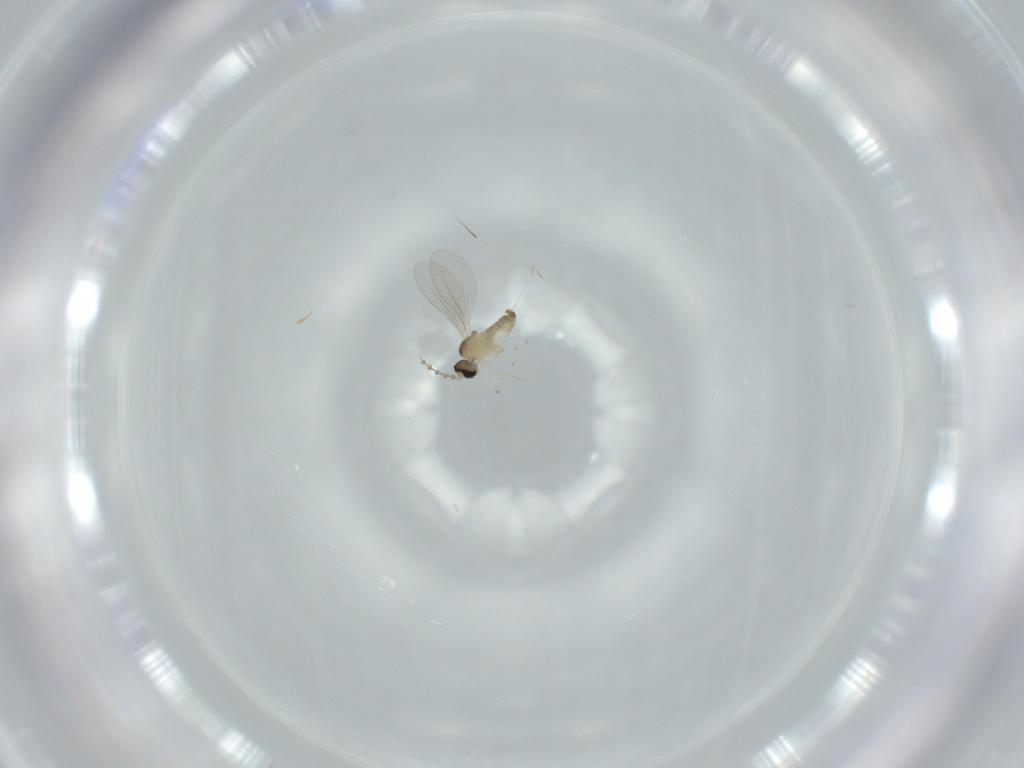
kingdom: Animalia
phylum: Arthropoda
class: Insecta
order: Diptera
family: Cecidomyiidae
